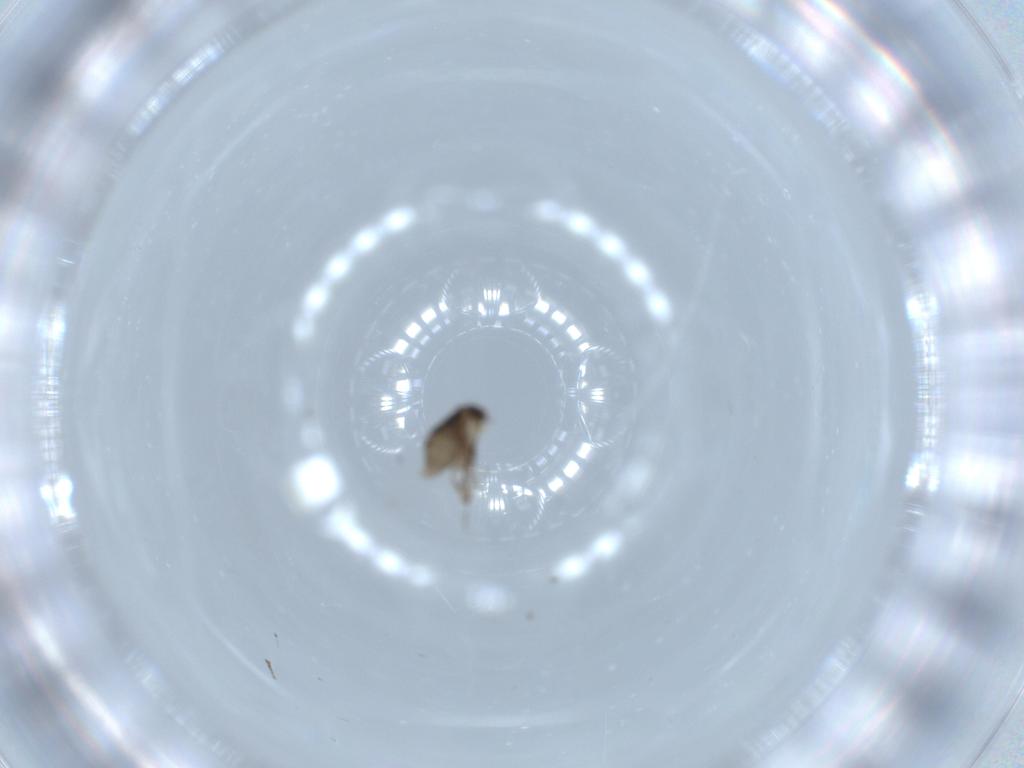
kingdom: Animalia
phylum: Arthropoda
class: Insecta
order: Diptera
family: Phoridae
